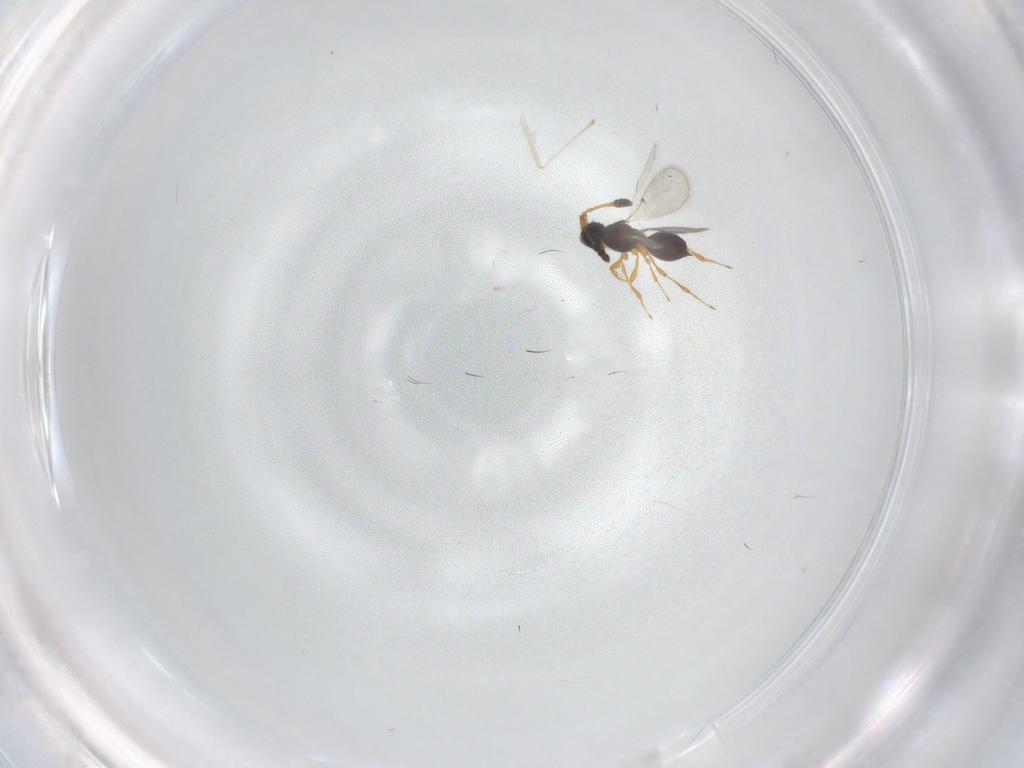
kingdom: Animalia
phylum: Arthropoda
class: Insecta
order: Hymenoptera
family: Diapriidae
